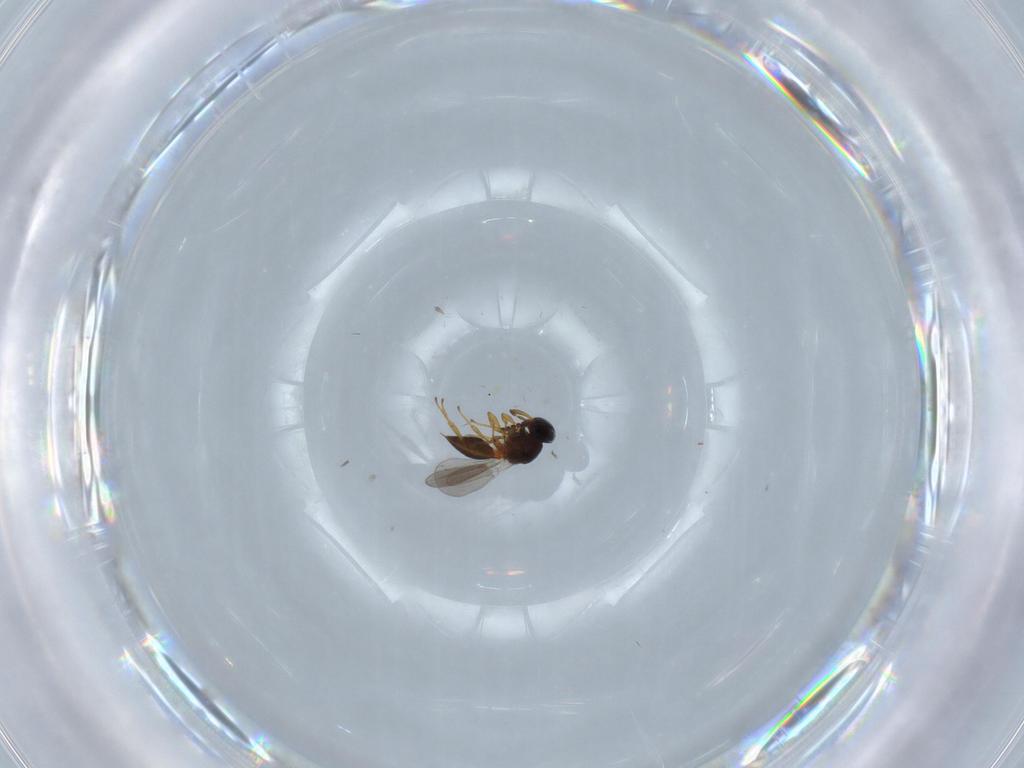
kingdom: Animalia
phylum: Arthropoda
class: Insecta
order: Hymenoptera
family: Platygastridae
